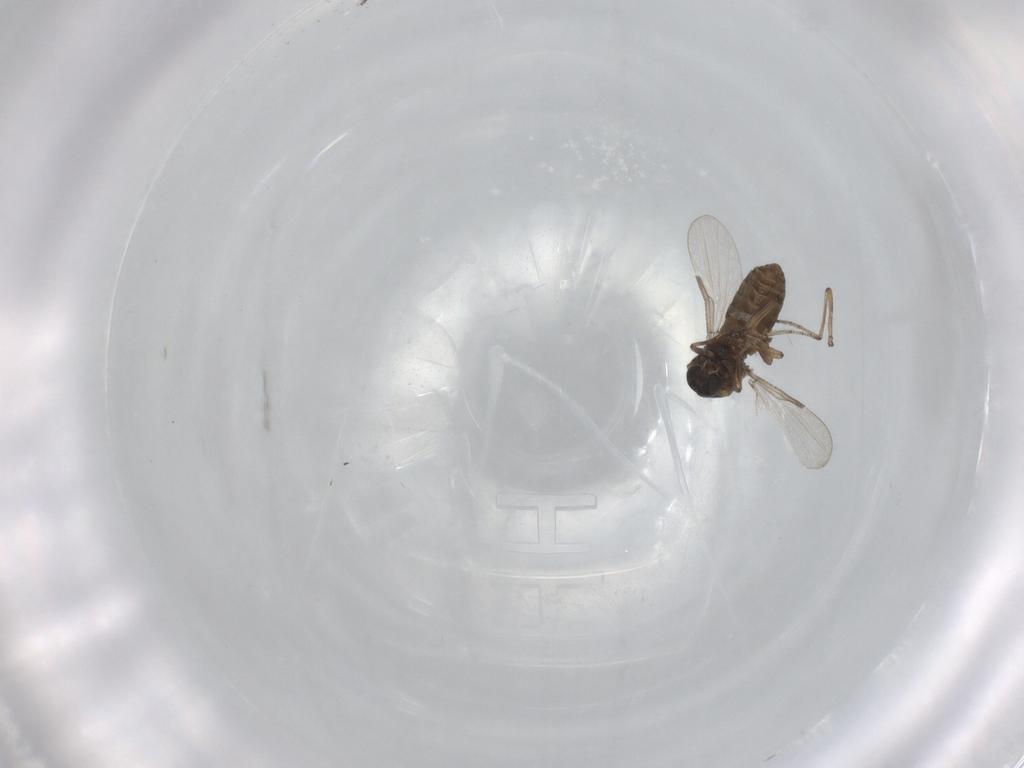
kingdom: Animalia
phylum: Arthropoda
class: Insecta
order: Diptera
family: Ceratopogonidae
